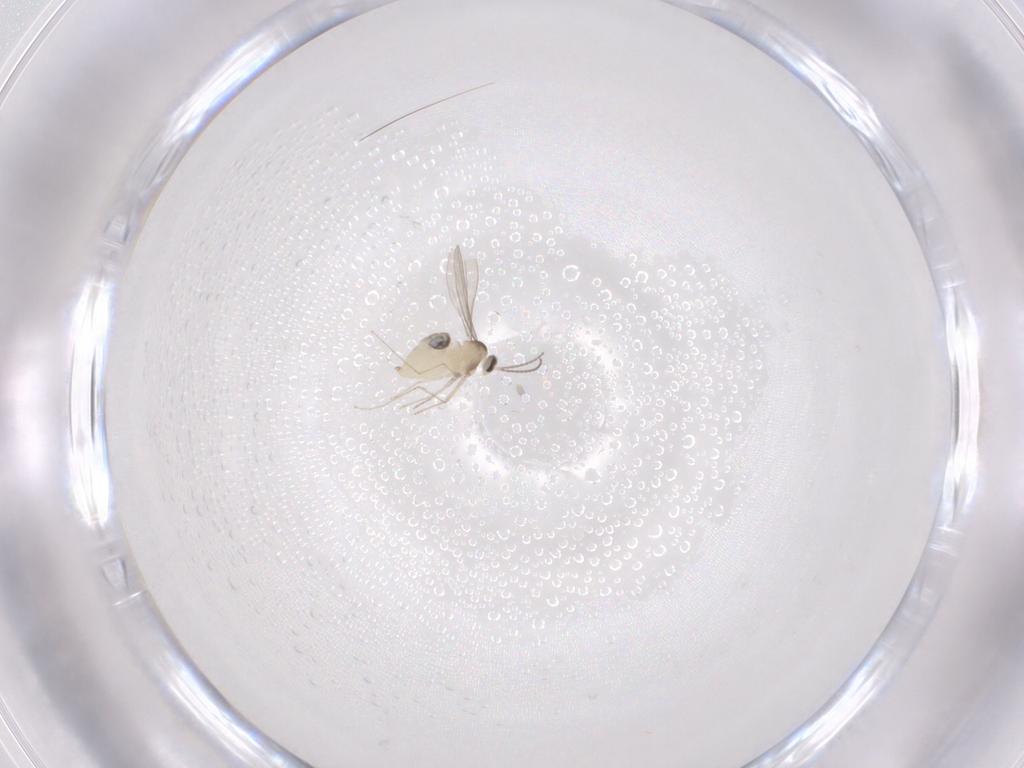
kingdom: Animalia
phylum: Arthropoda
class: Insecta
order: Diptera
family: Cecidomyiidae
